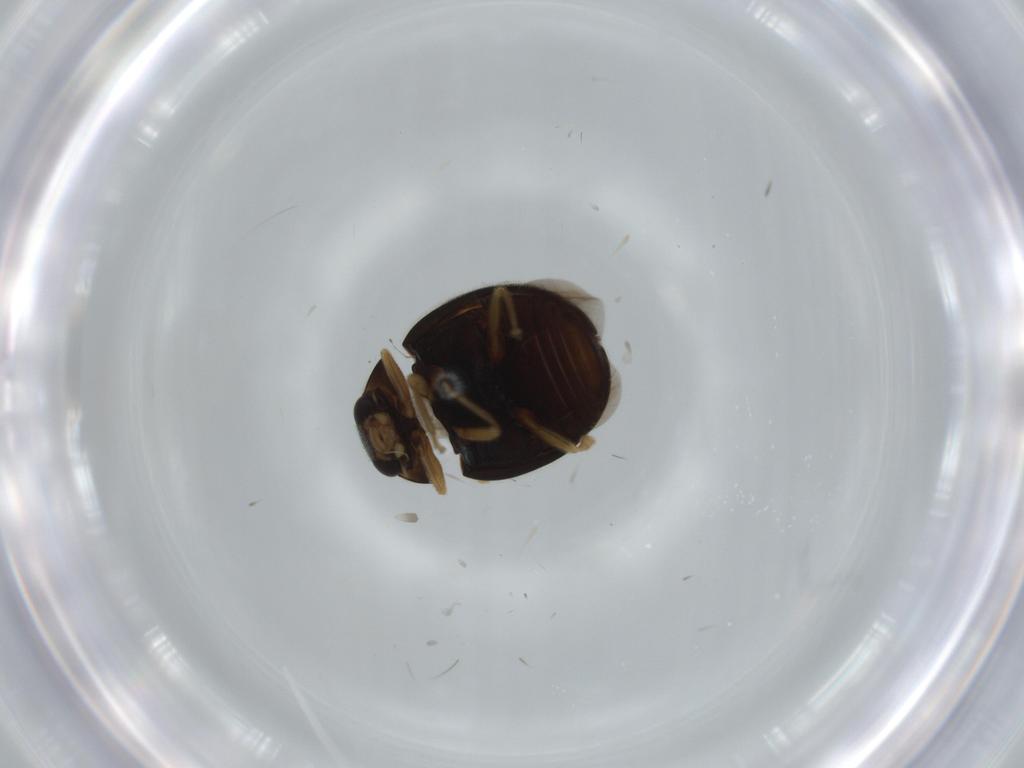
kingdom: Animalia
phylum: Arthropoda
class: Insecta
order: Coleoptera
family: Coccinellidae
